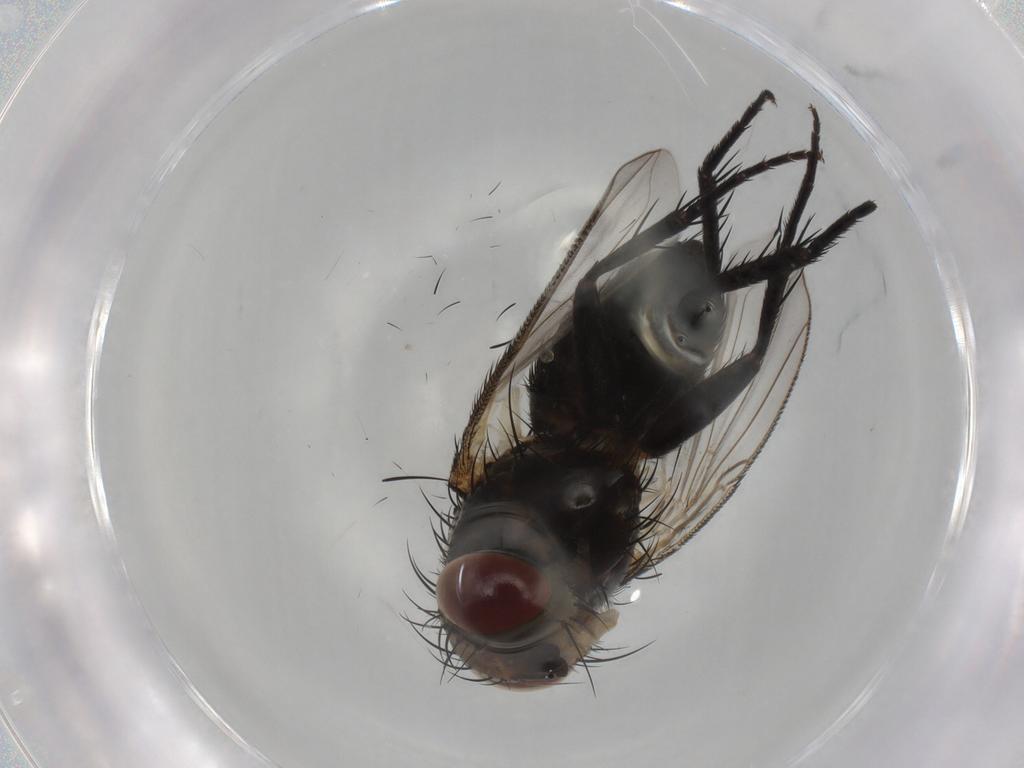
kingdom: Animalia
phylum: Arthropoda
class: Insecta
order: Diptera
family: Tachinidae
